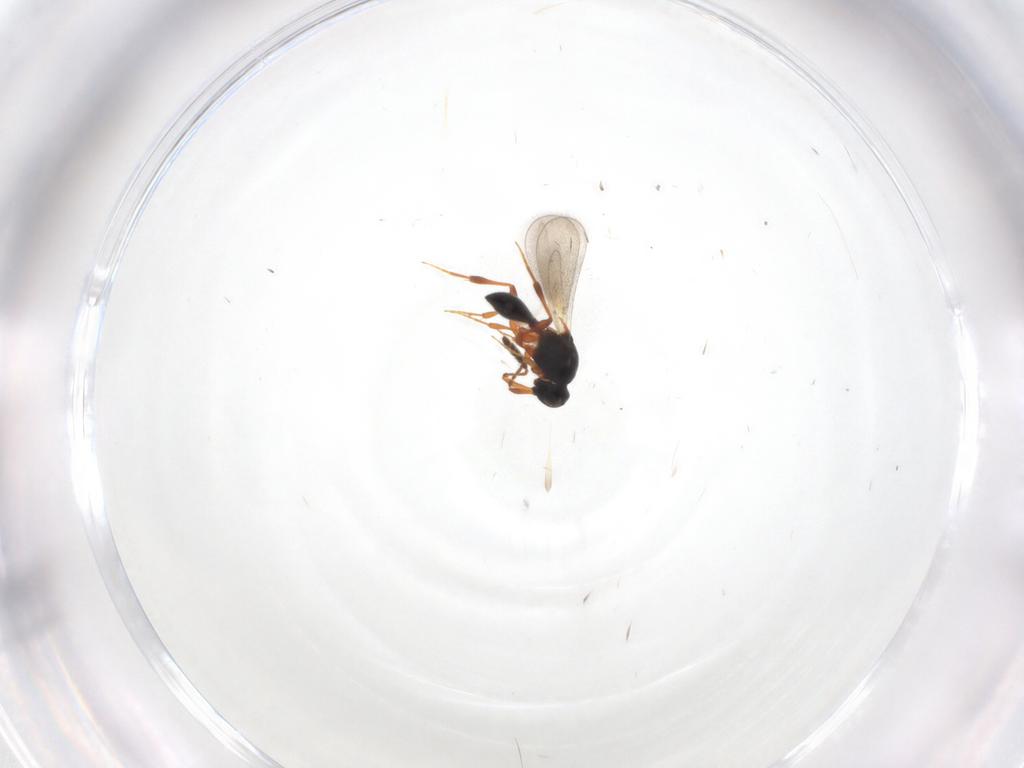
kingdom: Animalia
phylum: Arthropoda
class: Insecta
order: Hymenoptera
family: Platygastridae
